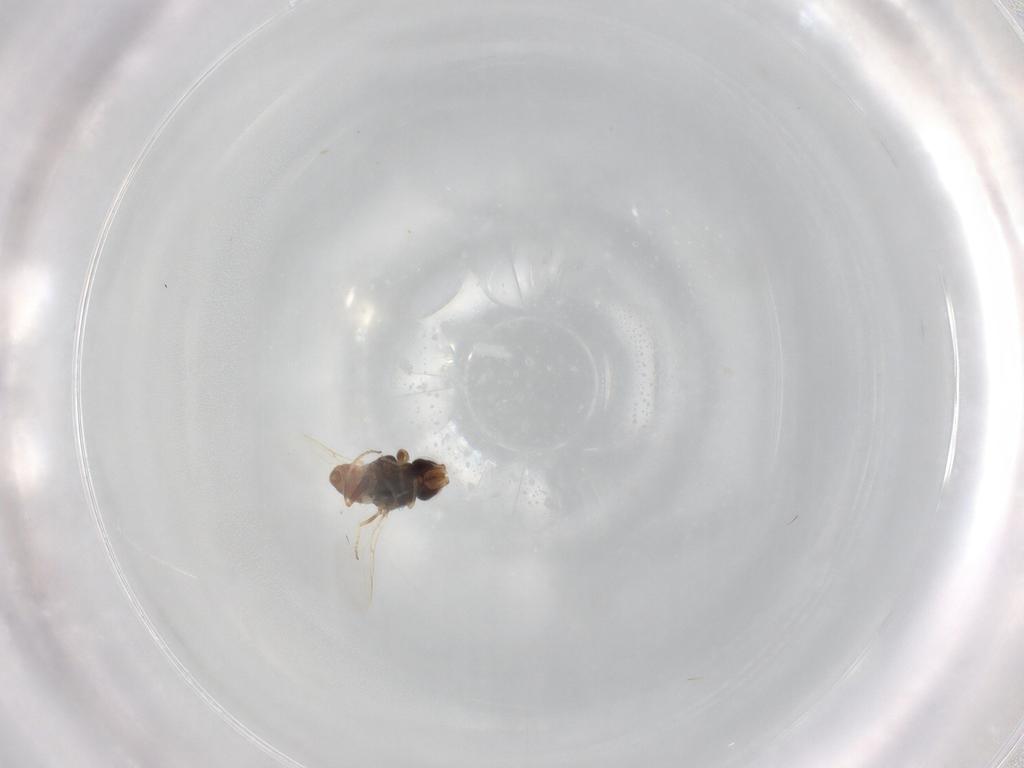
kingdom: Animalia
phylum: Arthropoda
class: Insecta
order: Diptera
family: Chloropidae
